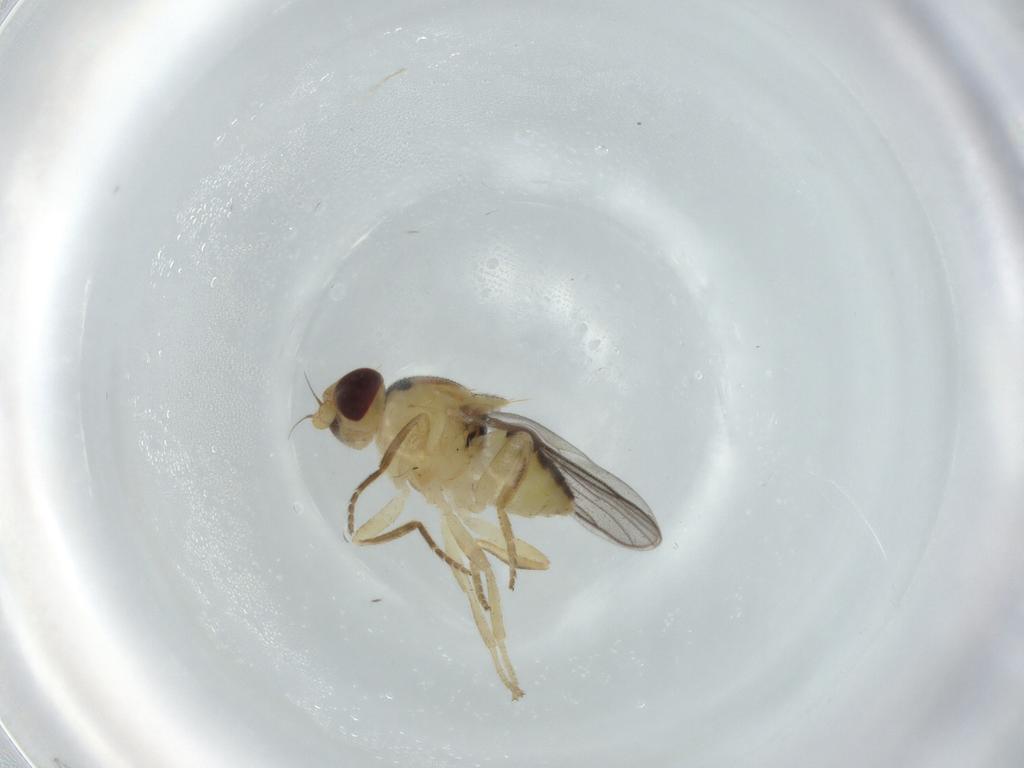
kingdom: Animalia
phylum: Arthropoda
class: Insecta
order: Diptera
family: Chloropidae
